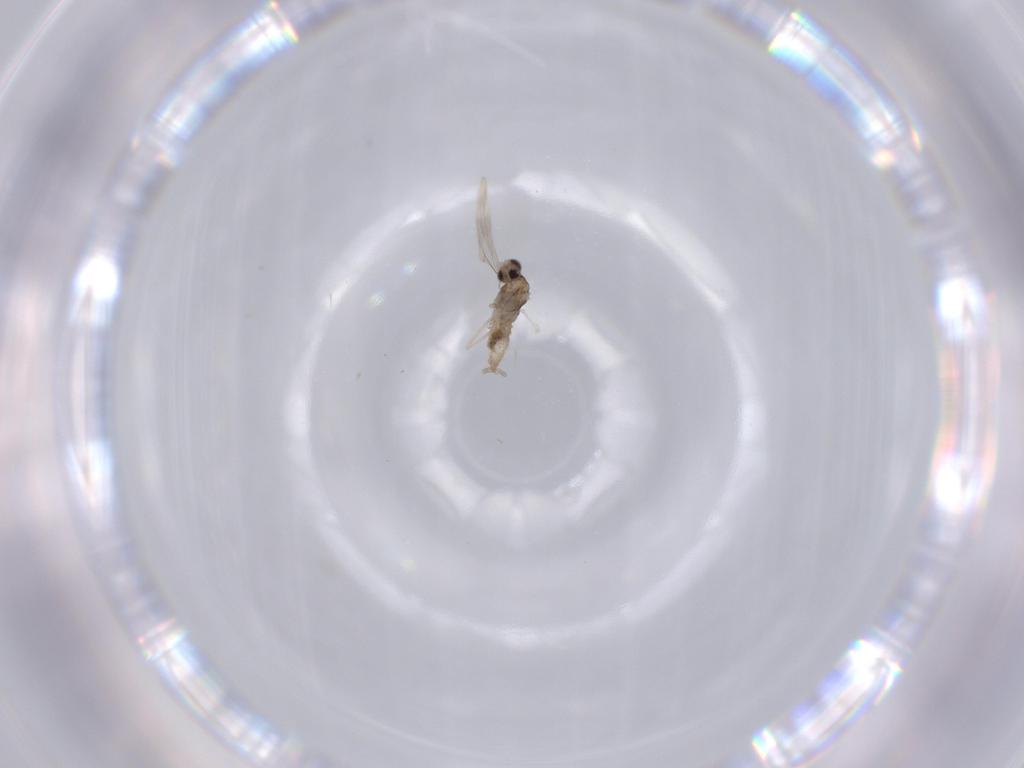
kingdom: Animalia
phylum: Arthropoda
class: Insecta
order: Diptera
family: Cecidomyiidae
